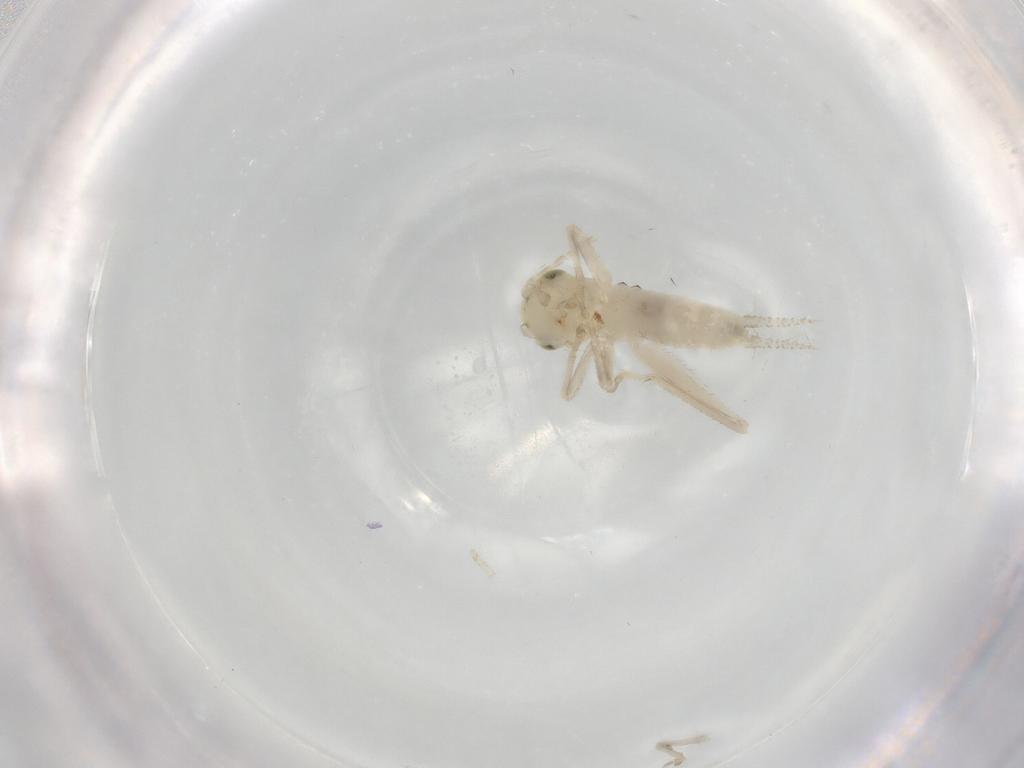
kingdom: Animalia
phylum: Arthropoda
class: Insecta
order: Orthoptera
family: Trigonidiidae
